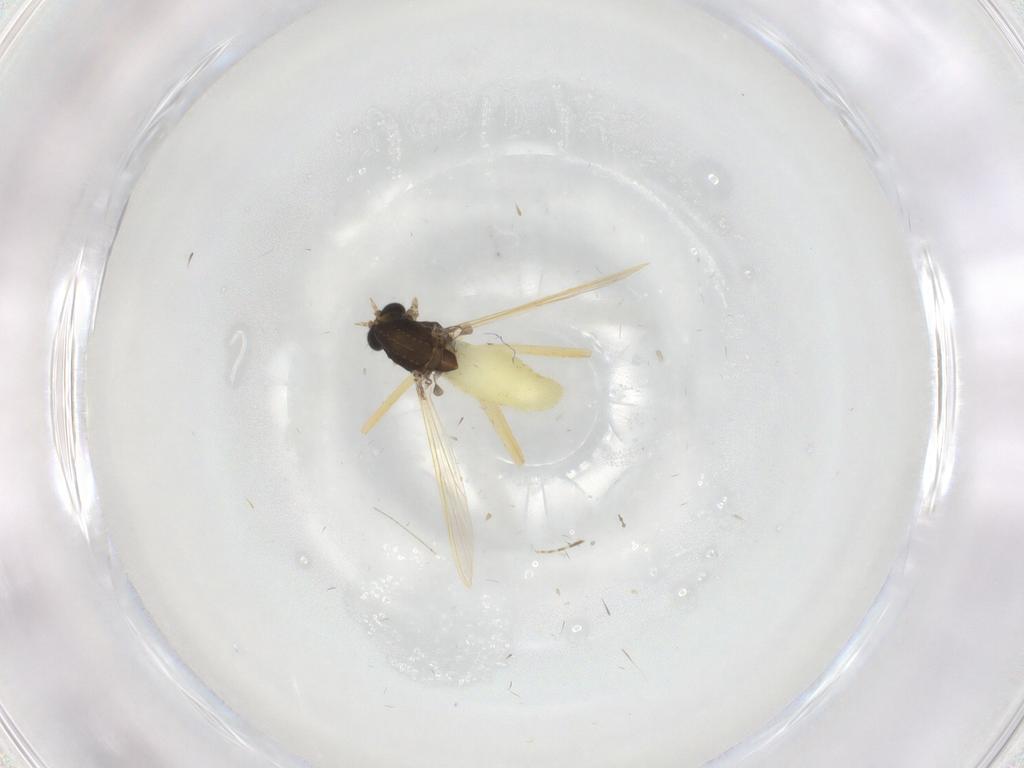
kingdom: Animalia
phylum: Arthropoda
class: Insecta
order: Diptera
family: Chironomidae
